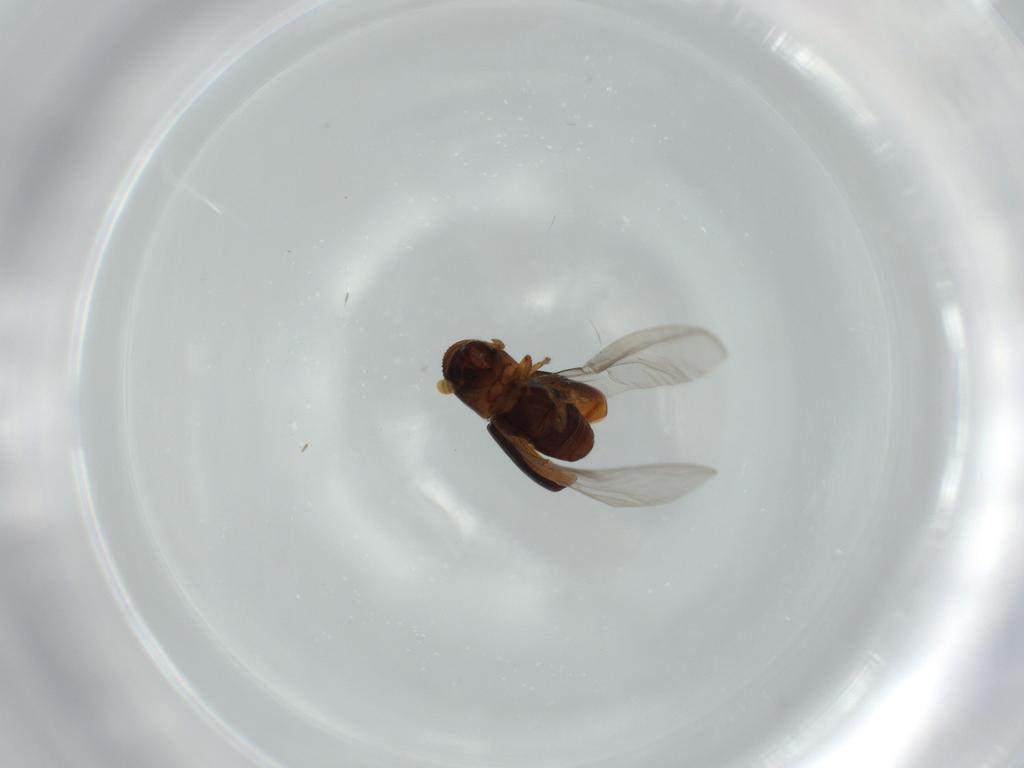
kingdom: Animalia
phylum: Arthropoda
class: Insecta
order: Coleoptera
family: Curculionidae
